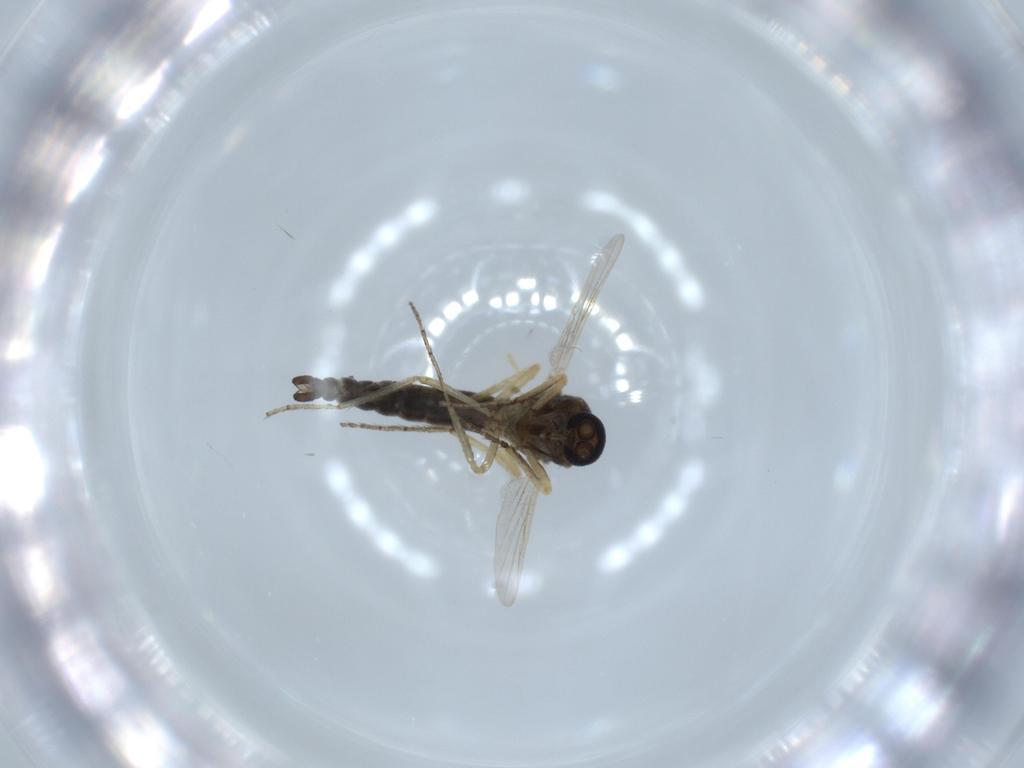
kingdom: Animalia
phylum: Arthropoda
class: Insecta
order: Diptera
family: Ceratopogonidae
